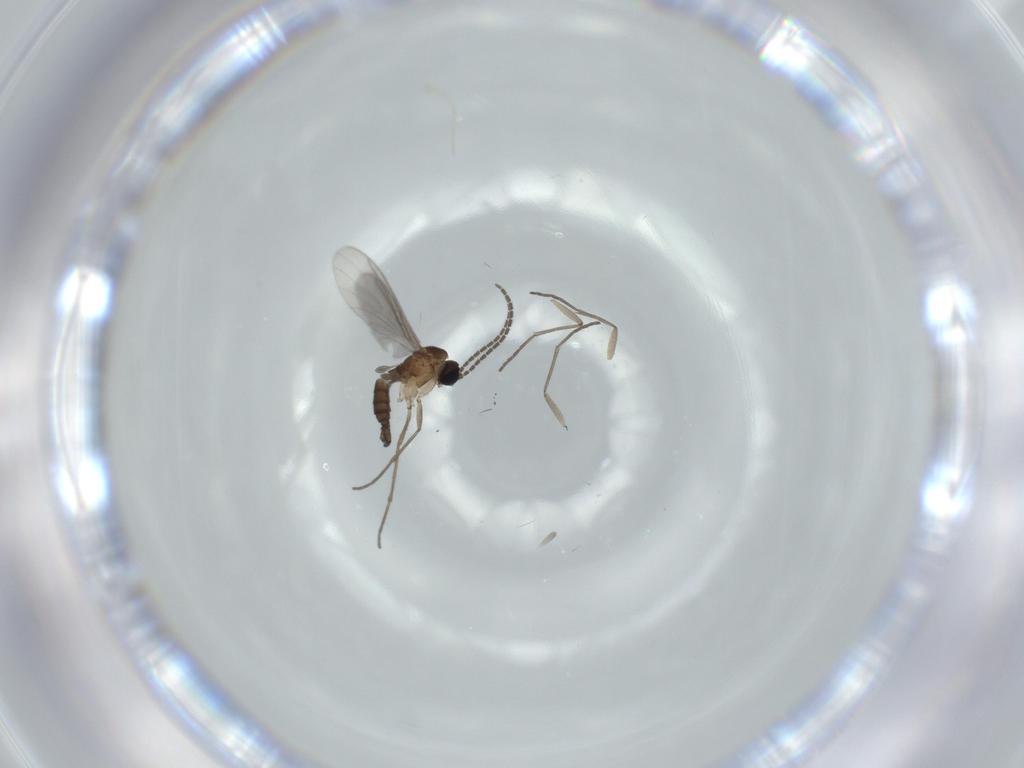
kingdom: Animalia
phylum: Arthropoda
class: Insecta
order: Diptera
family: Sciaridae
